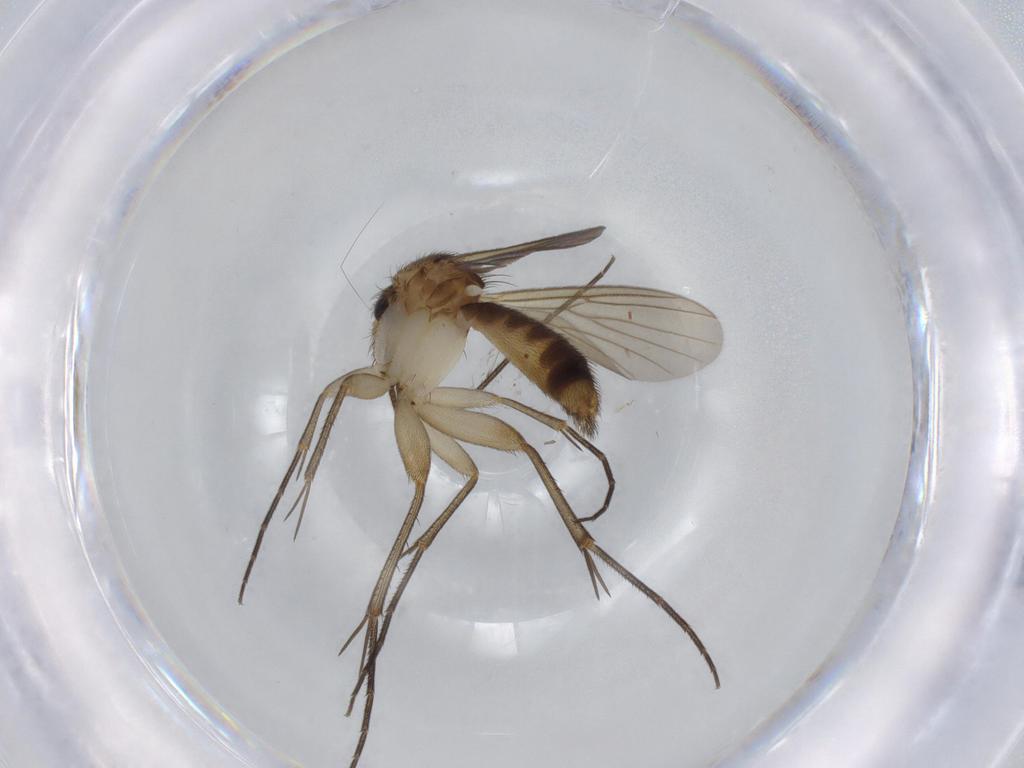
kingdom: Animalia
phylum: Arthropoda
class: Insecta
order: Diptera
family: Mycetophilidae
